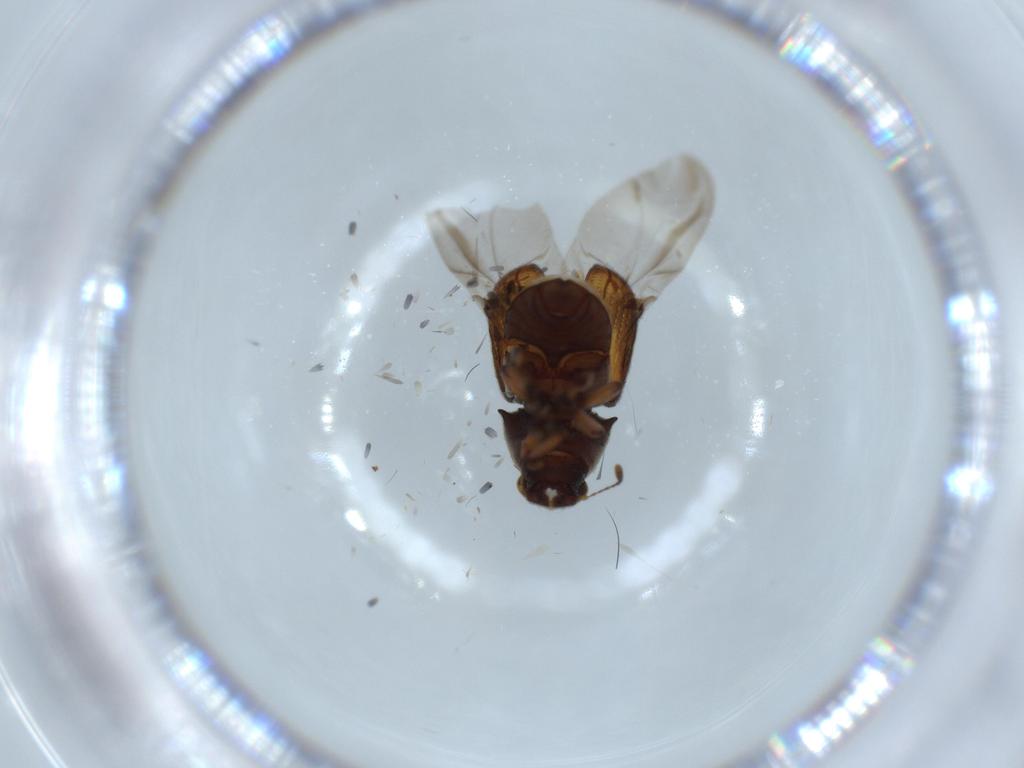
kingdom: Animalia
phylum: Arthropoda
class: Insecta
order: Coleoptera
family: Anthribidae
